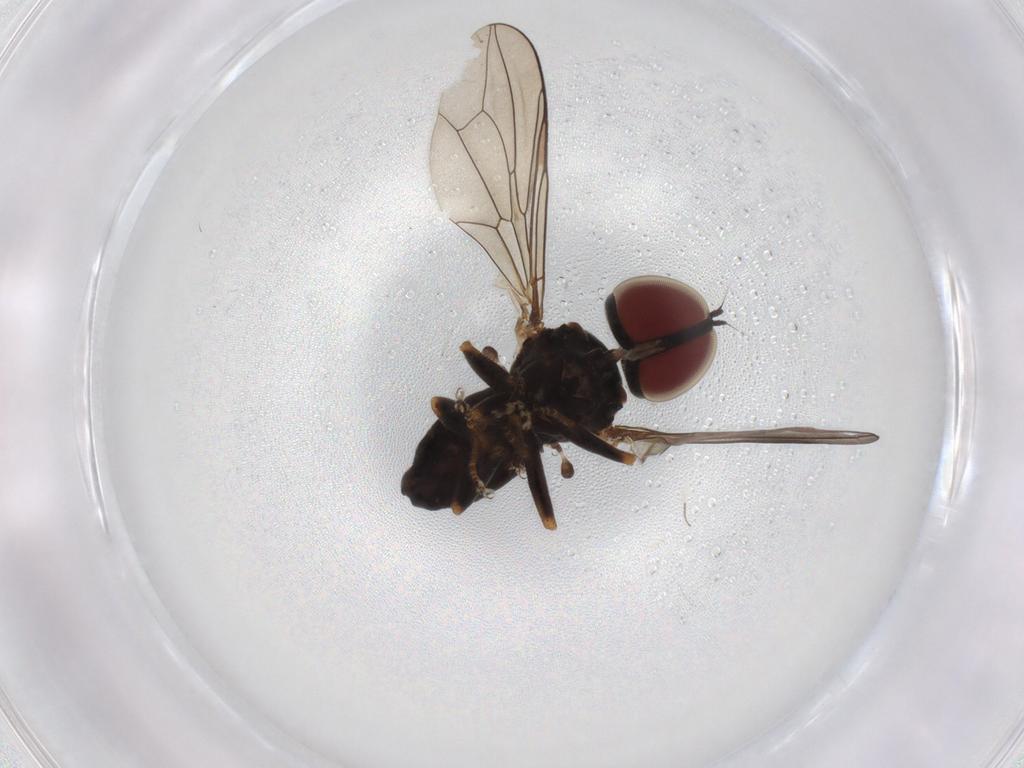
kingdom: Animalia
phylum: Arthropoda
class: Insecta
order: Diptera
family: Pipunculidae
